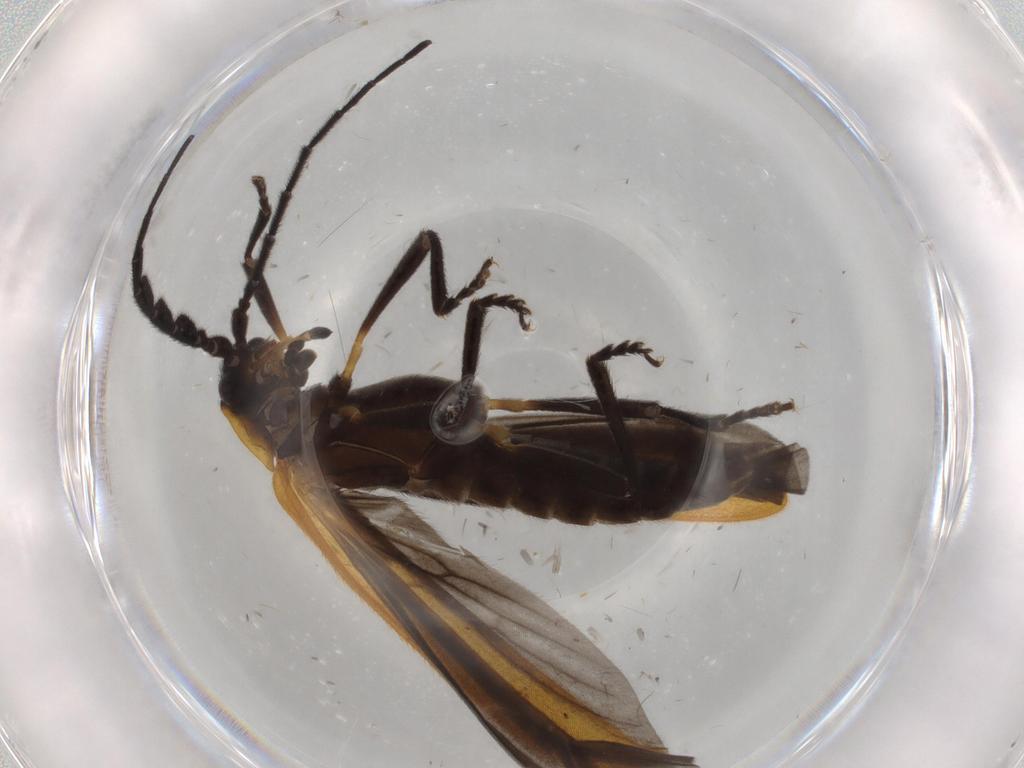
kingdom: Animalia
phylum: Arthropoda
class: Insecta
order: Coleoptera
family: Lycidae
